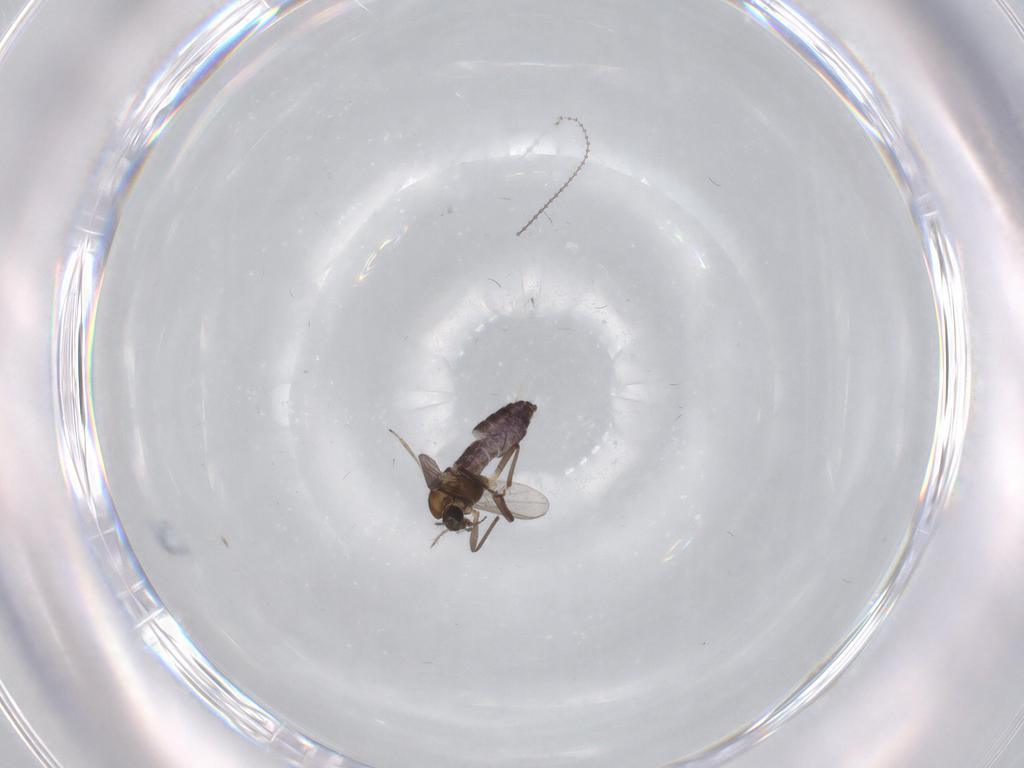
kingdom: Animalia
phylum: Arthropoda
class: Insecta
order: Diptera
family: Chironomidae
